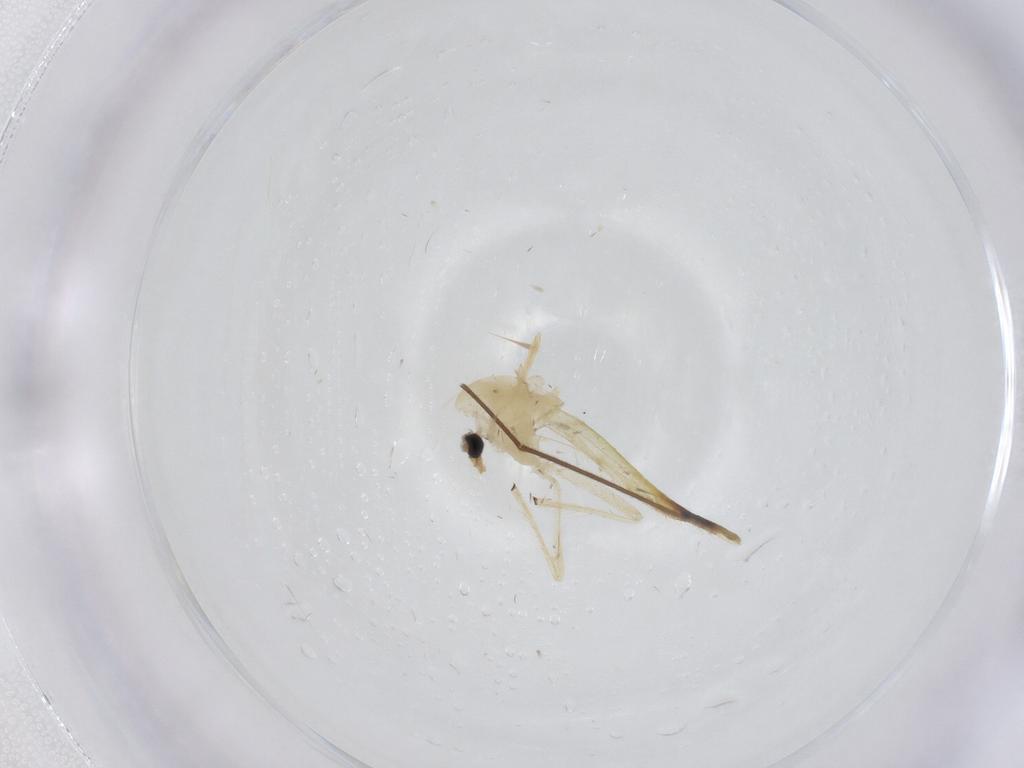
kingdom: Animalia
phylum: Arthropoda
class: Insecta
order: Diptera
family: Chironomidae
